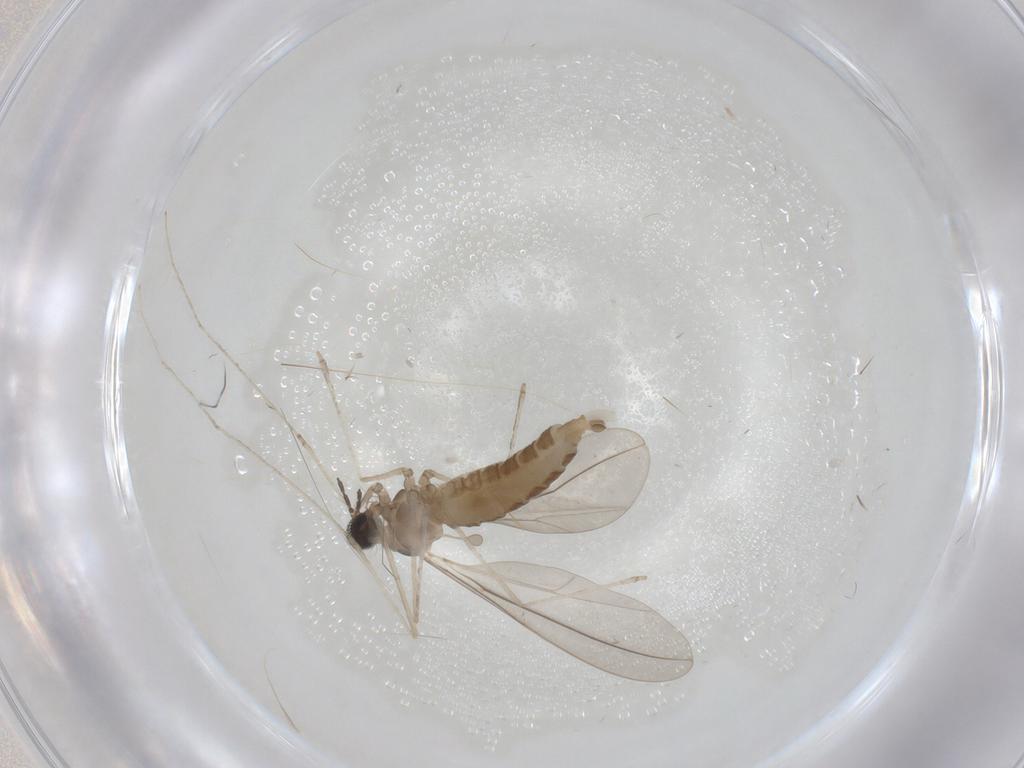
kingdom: Animalia
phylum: Arthropoda
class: Insecta
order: Diptera
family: Cecidomyiidae
